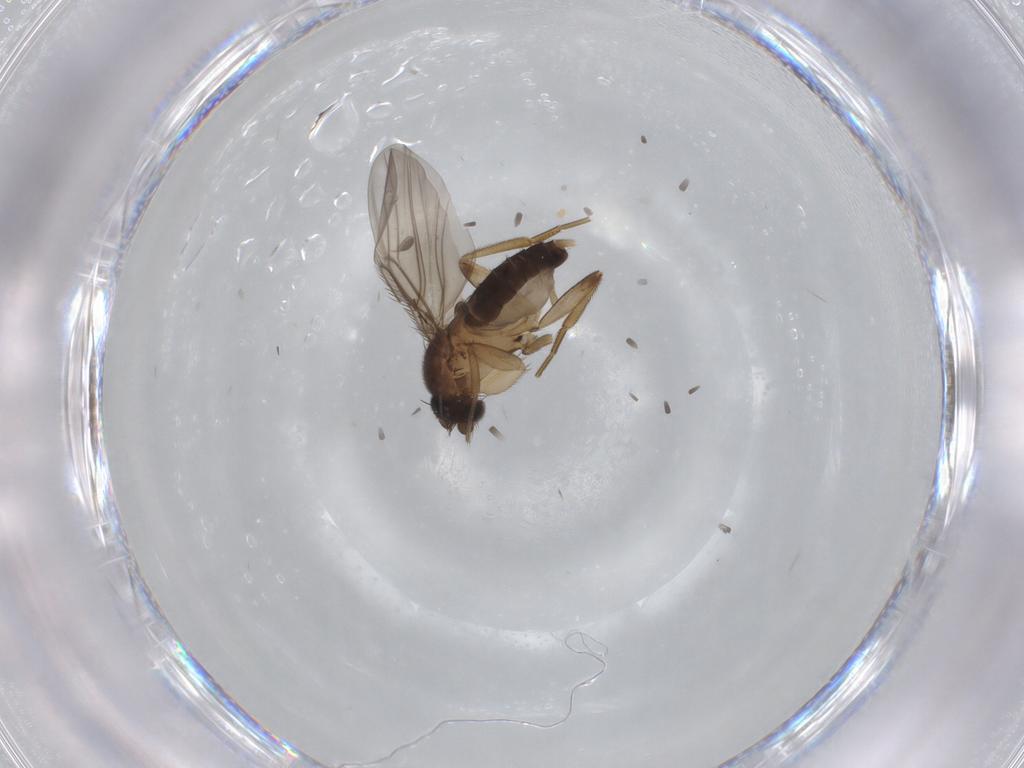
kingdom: Animalia
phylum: Arthropoda
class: Insecta
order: Diptera
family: Phoridae
